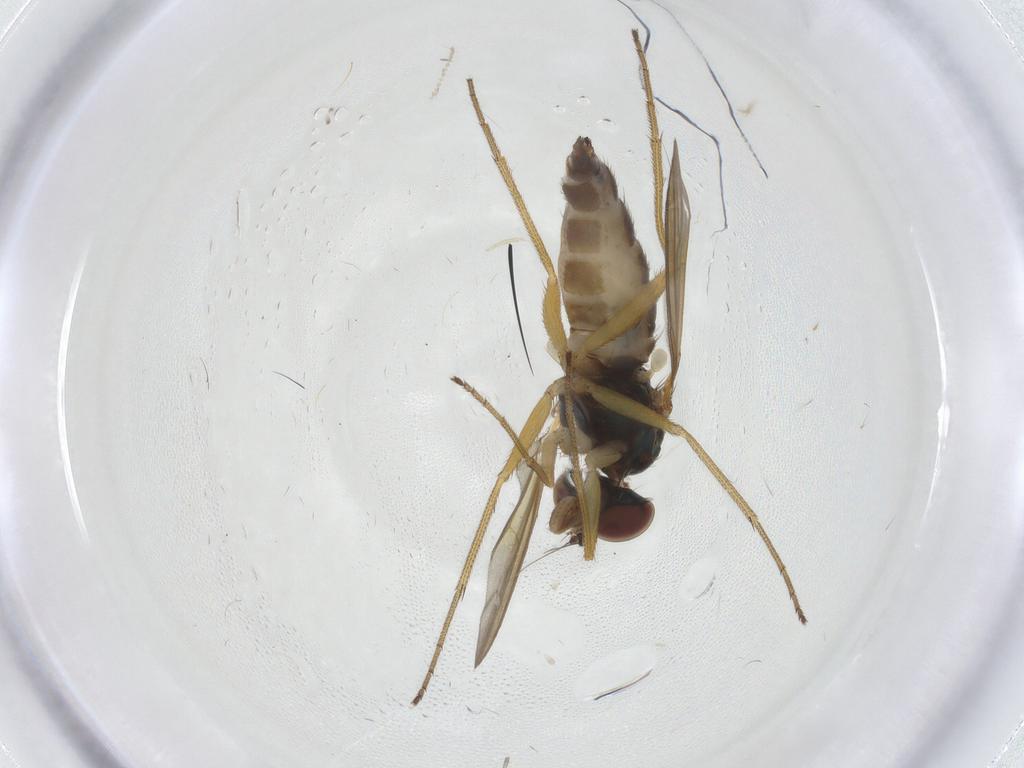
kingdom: Animalia
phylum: Arthropoda
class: Insecta
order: Diptera
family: Dolichopodidae
